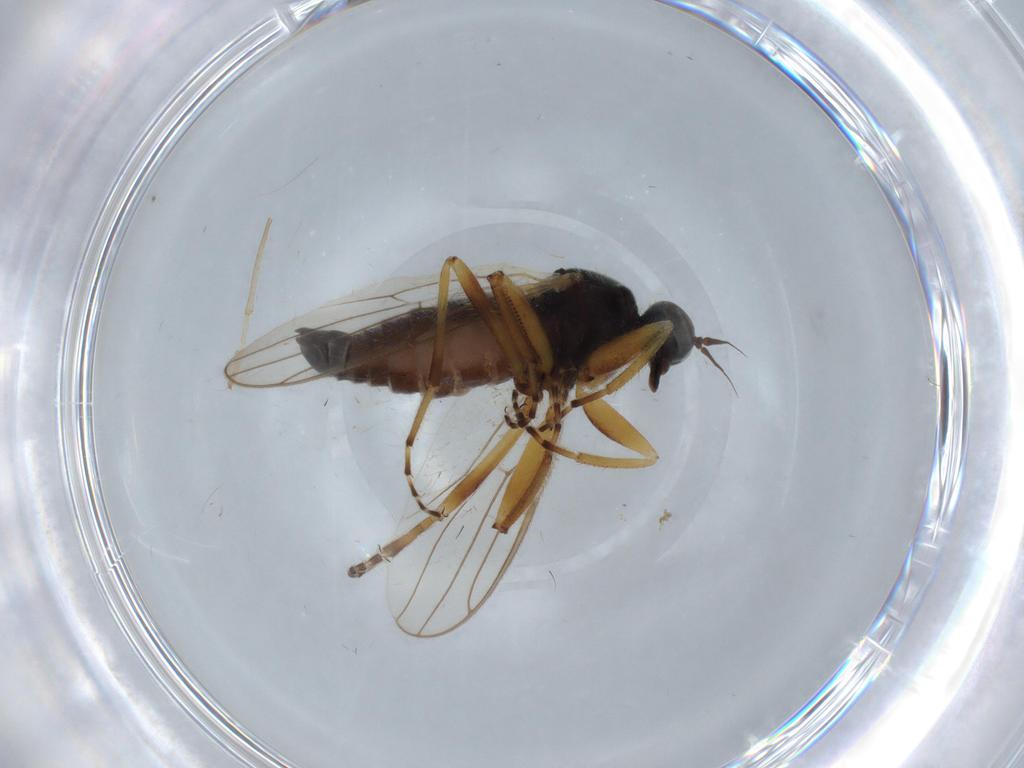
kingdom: Animalia
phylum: Arthropoda
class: Insecta
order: Diptera
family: Hybotidae
